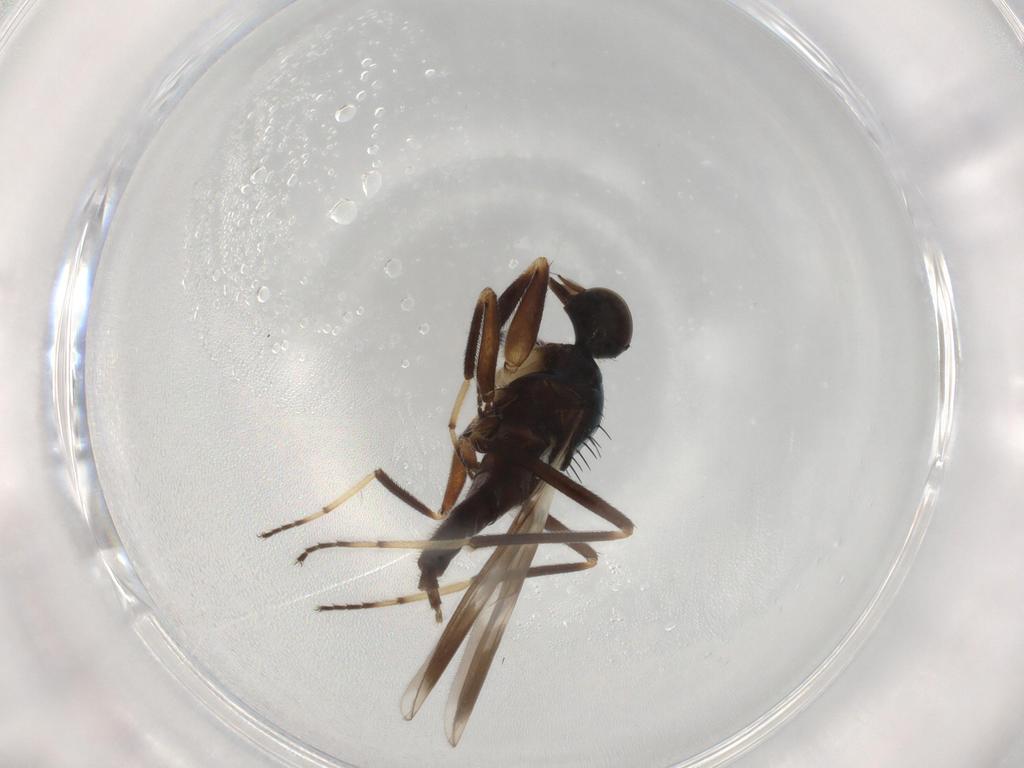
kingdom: Animalia
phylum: Arthropoda
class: Insecta
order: Diptera
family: Hybotidae
